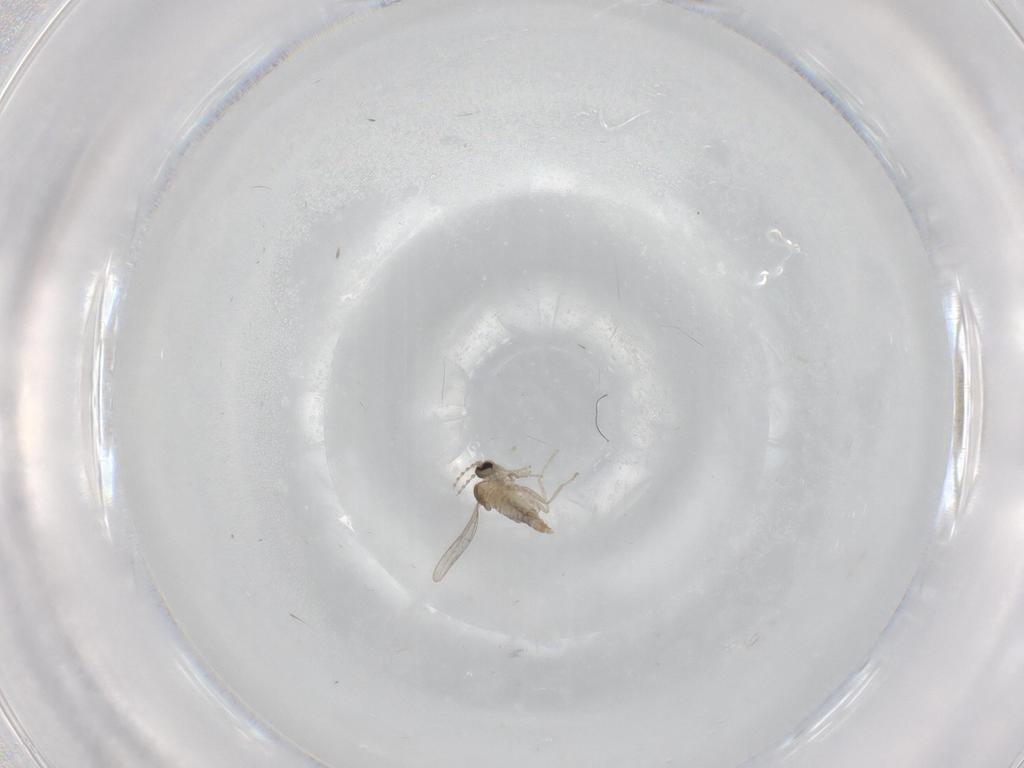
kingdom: Animalia
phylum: Arthropoda
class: Insecta
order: Diptera
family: Cecidomyiidae
